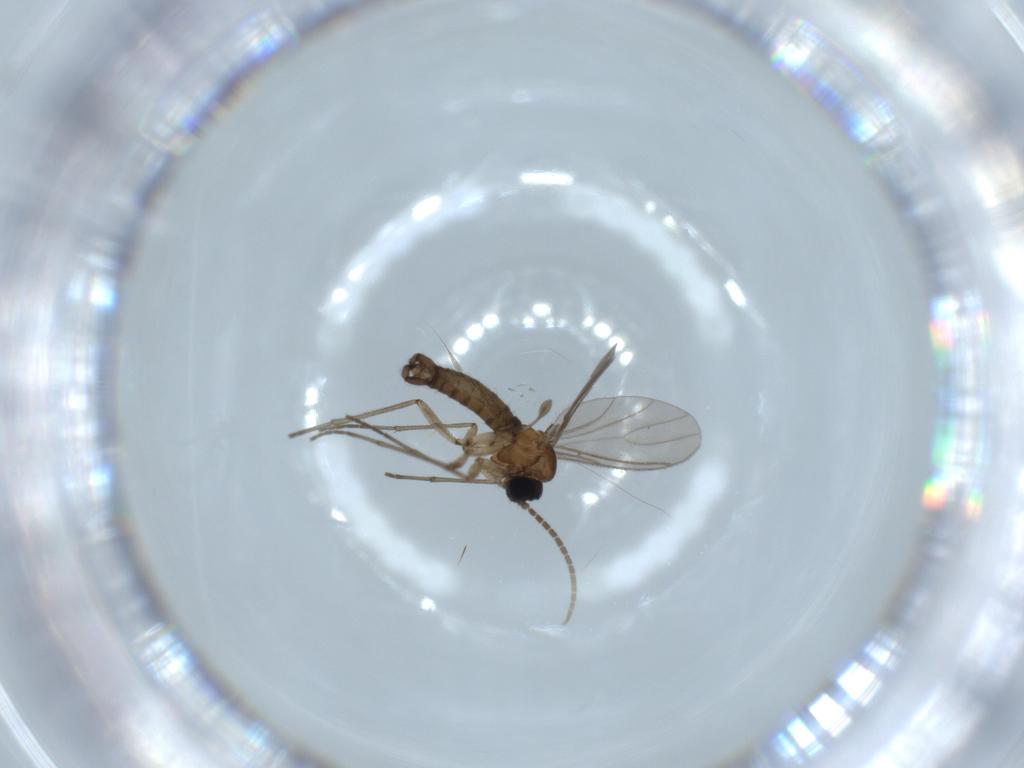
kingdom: Animalia
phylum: Arthropoda
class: Insecta
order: Diptera
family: Sciaridae
